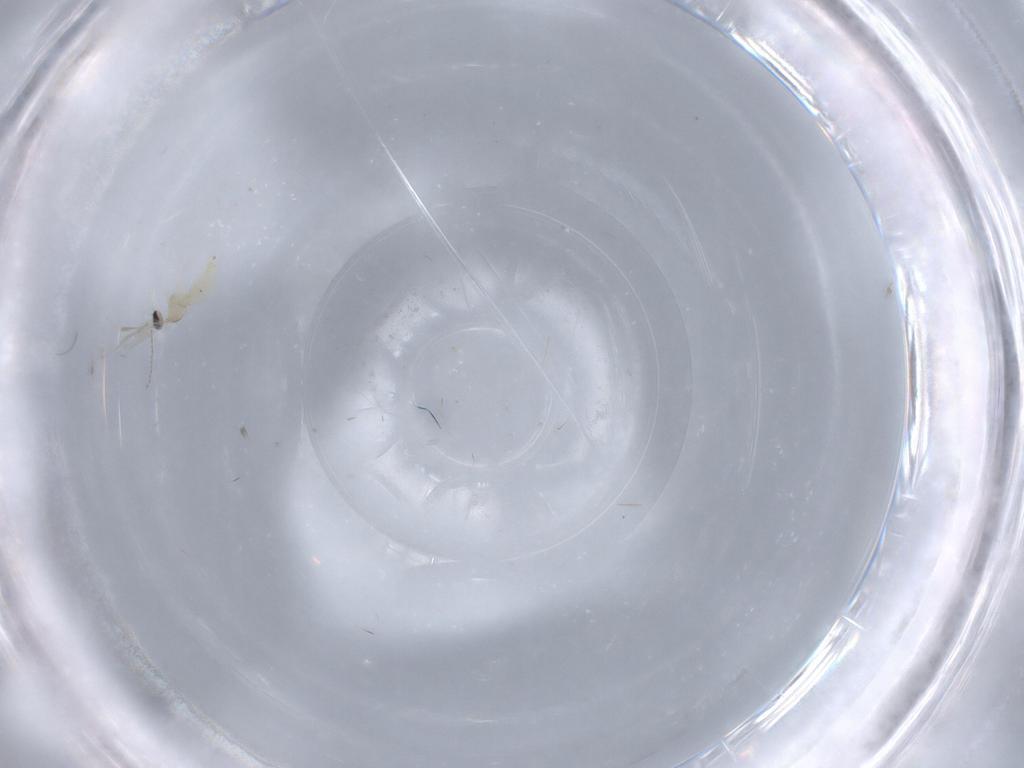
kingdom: Animalia
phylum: Arthropoda
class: Insecta
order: Diptera
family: Cecidomyiidae
